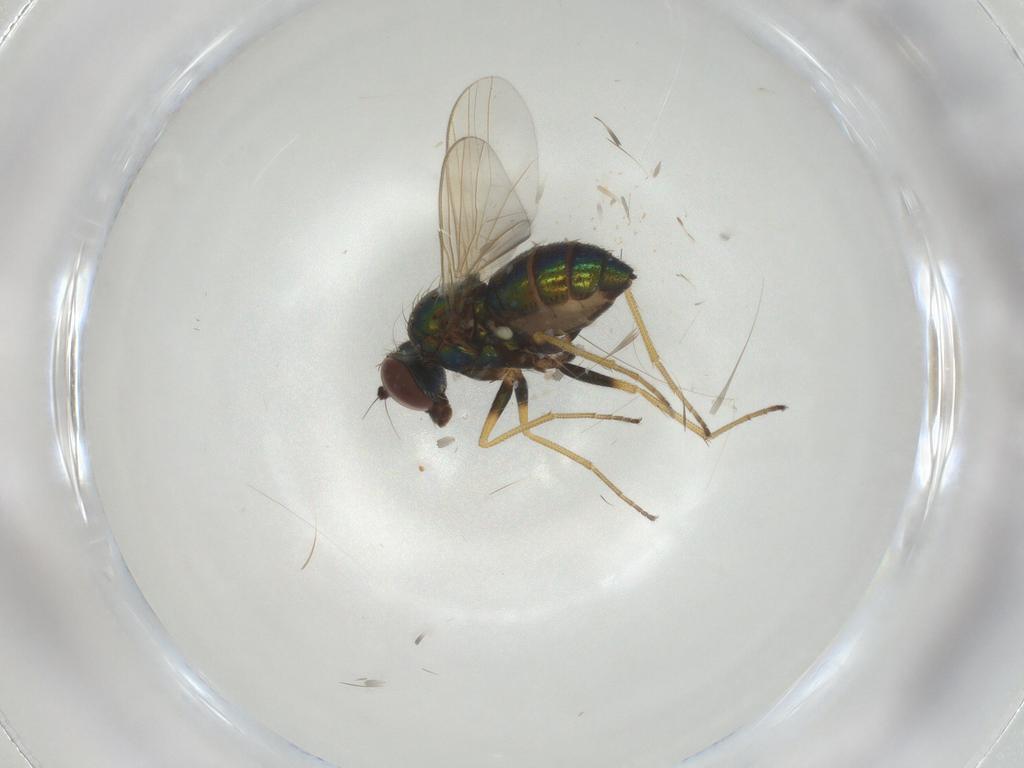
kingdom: Animalia
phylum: Arthropoda
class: Insecta
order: Diptera
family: Dolichopodidae
